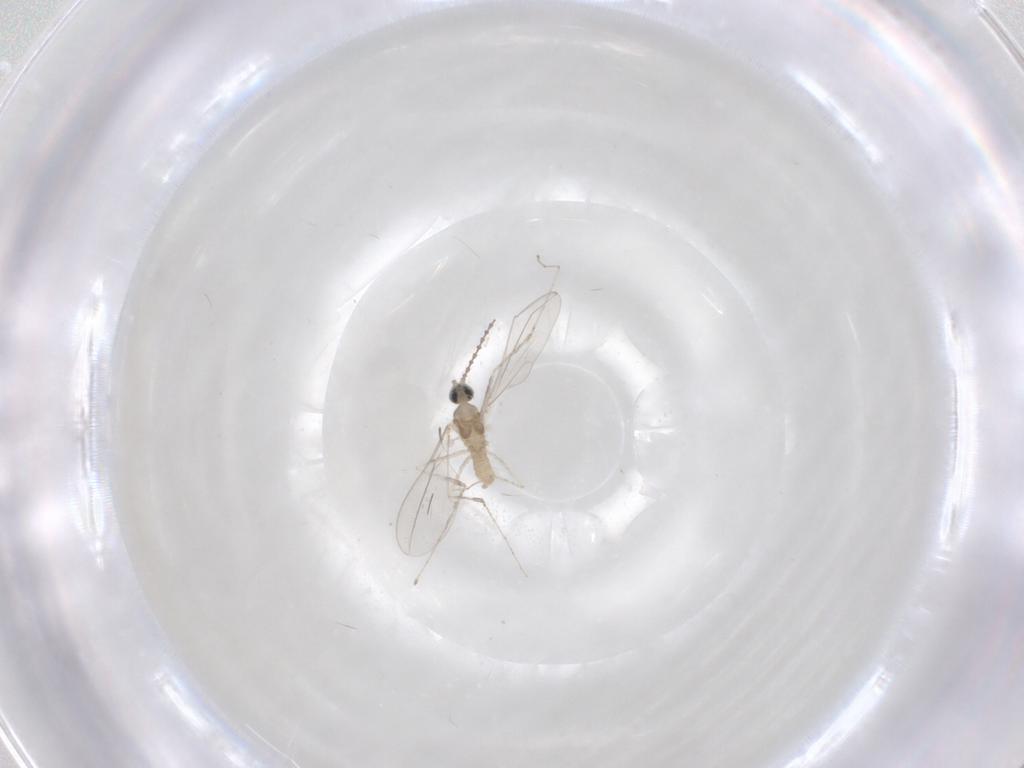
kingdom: Animalia
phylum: Arthropoda
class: Insecta
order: Diptera
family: Cecidomyiidae
